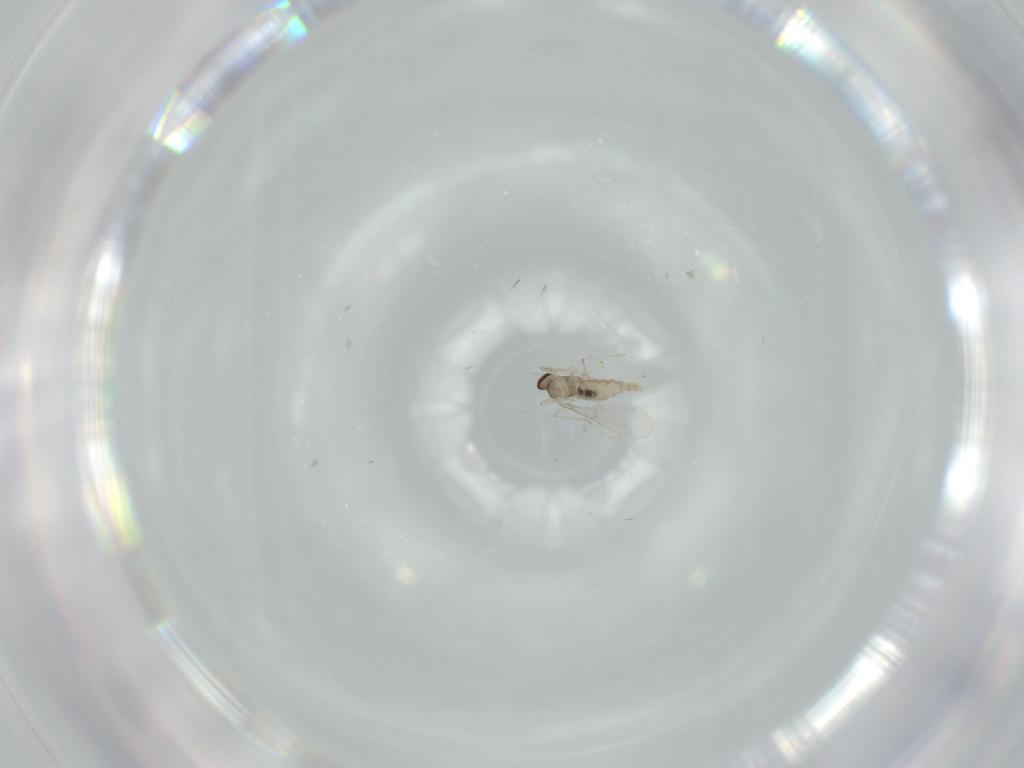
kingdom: Animalia
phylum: Arthropoda
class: Insecta
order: Diptera
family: Cecidomyiidae
